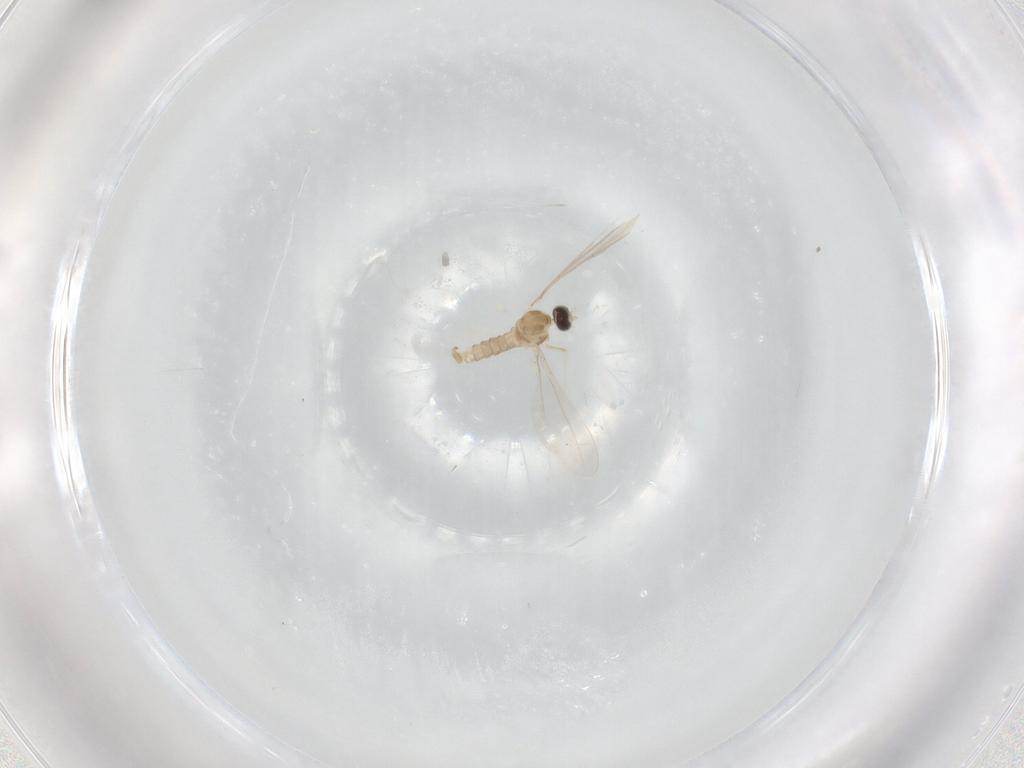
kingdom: Animalia
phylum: Arthropoda
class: Insecta
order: Diptera
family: Cecidomyiidae
